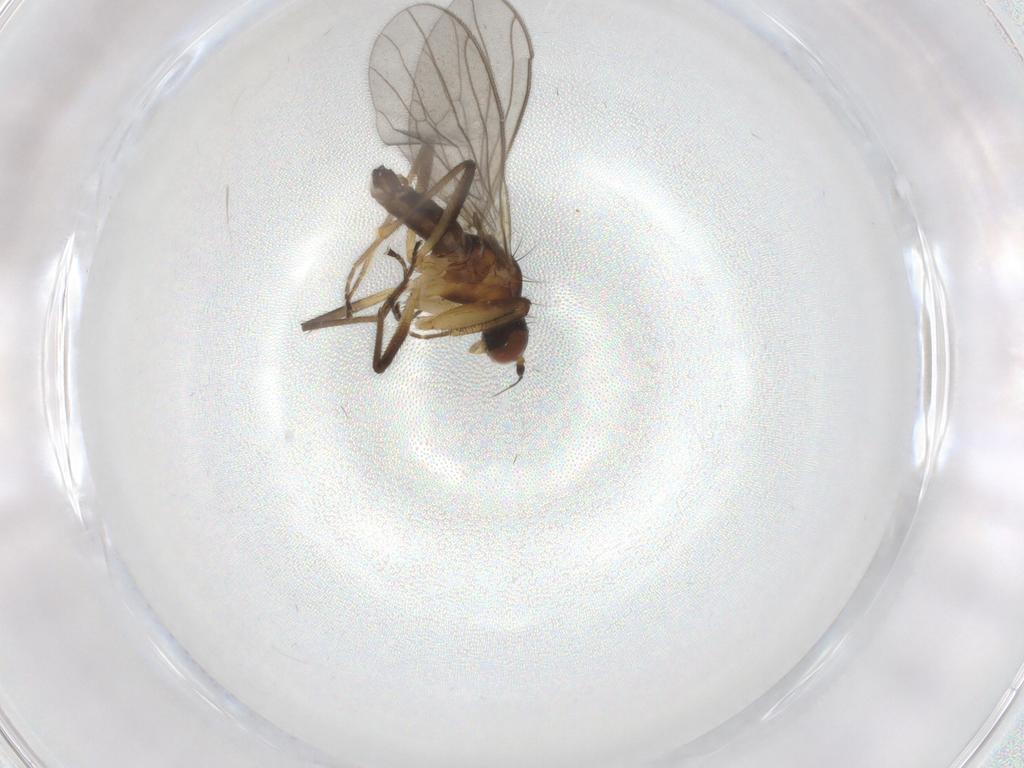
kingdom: Animalia
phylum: Arthropoda
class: Insecta
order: Diptera
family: Empididae
